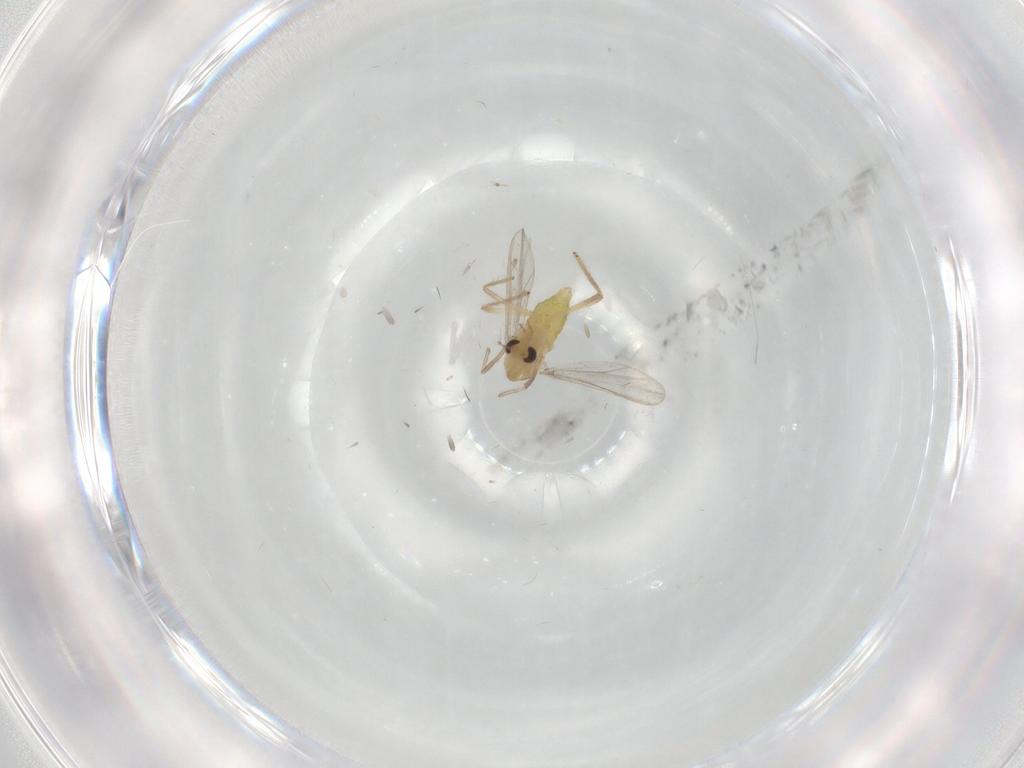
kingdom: Animalia
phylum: Arthropoda
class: Insecta
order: Diptera
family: Chironomidae
